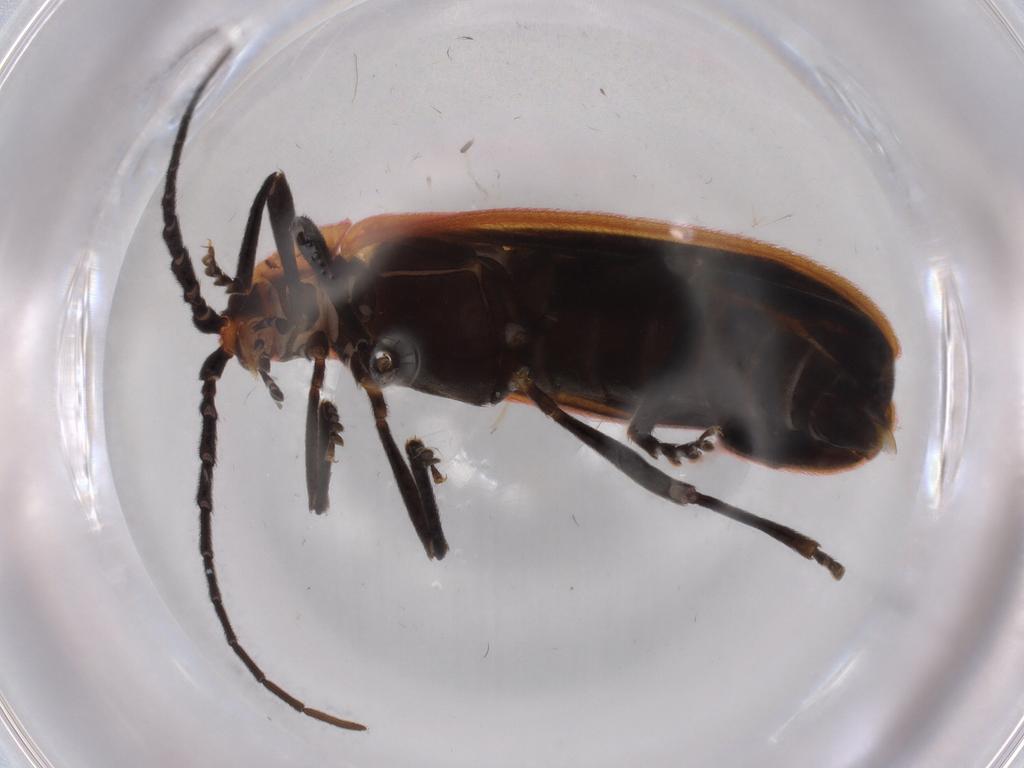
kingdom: Animalia
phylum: Arthropoda
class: Insecta
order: Coleoptera
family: Lycidae
